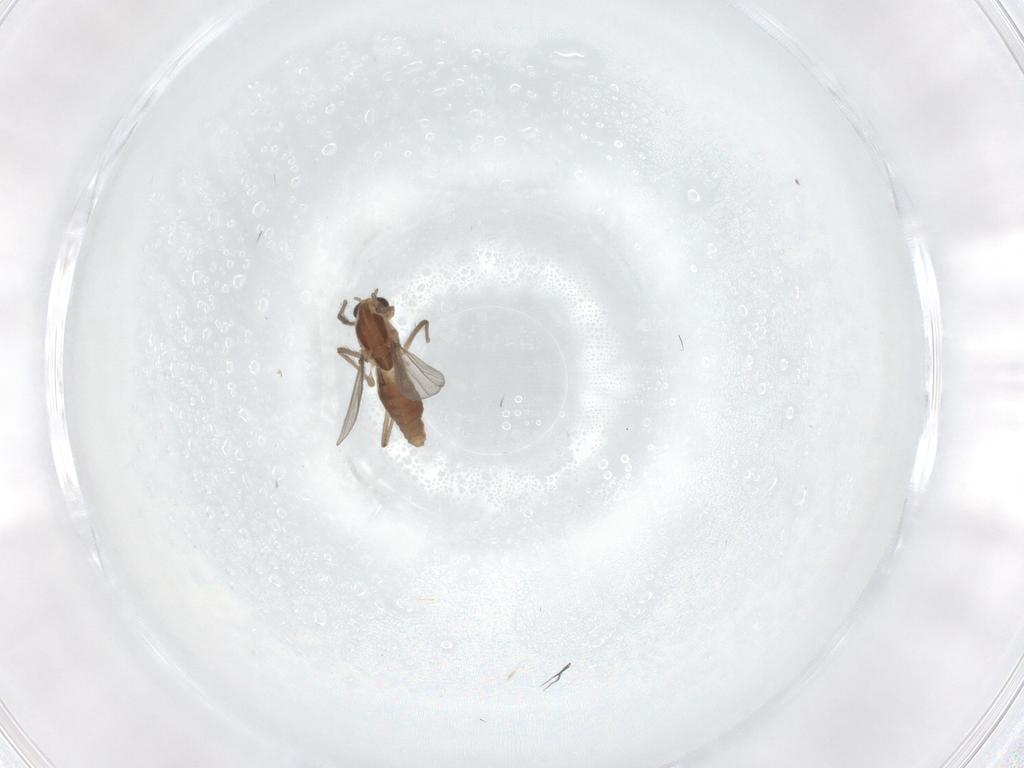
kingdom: Animalia
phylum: Arthropoda
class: Insecta
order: Diptera
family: Chironomidae
